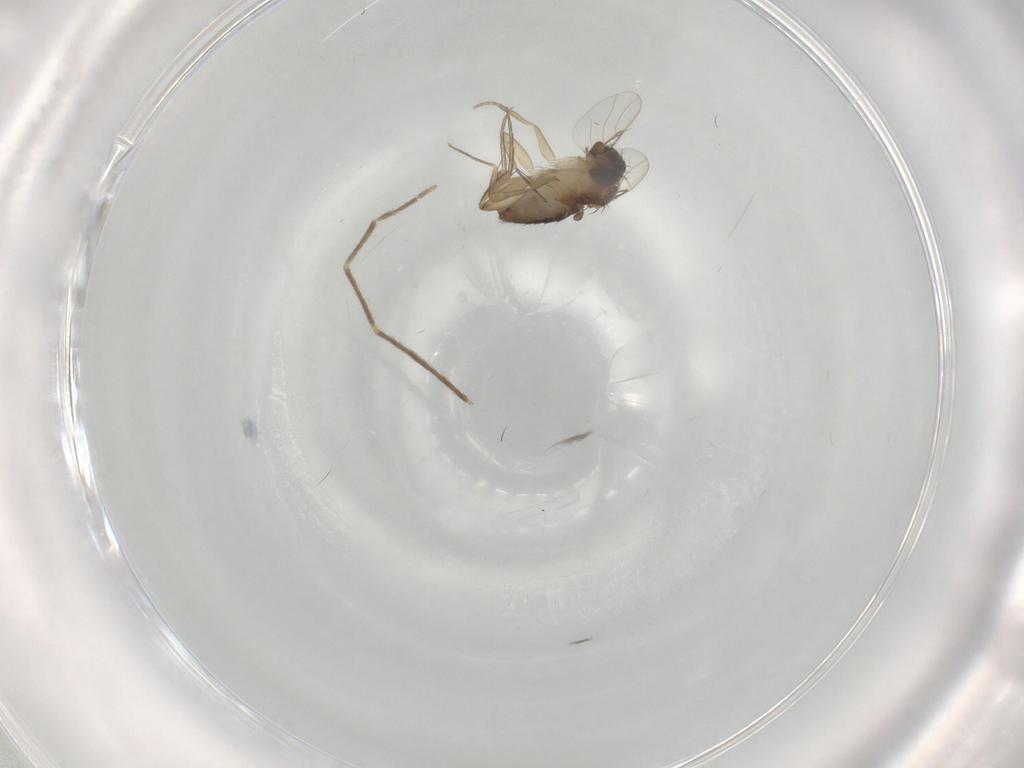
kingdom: Animalia
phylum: Arthropoda
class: Insecta
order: Diptera
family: Phoridae
